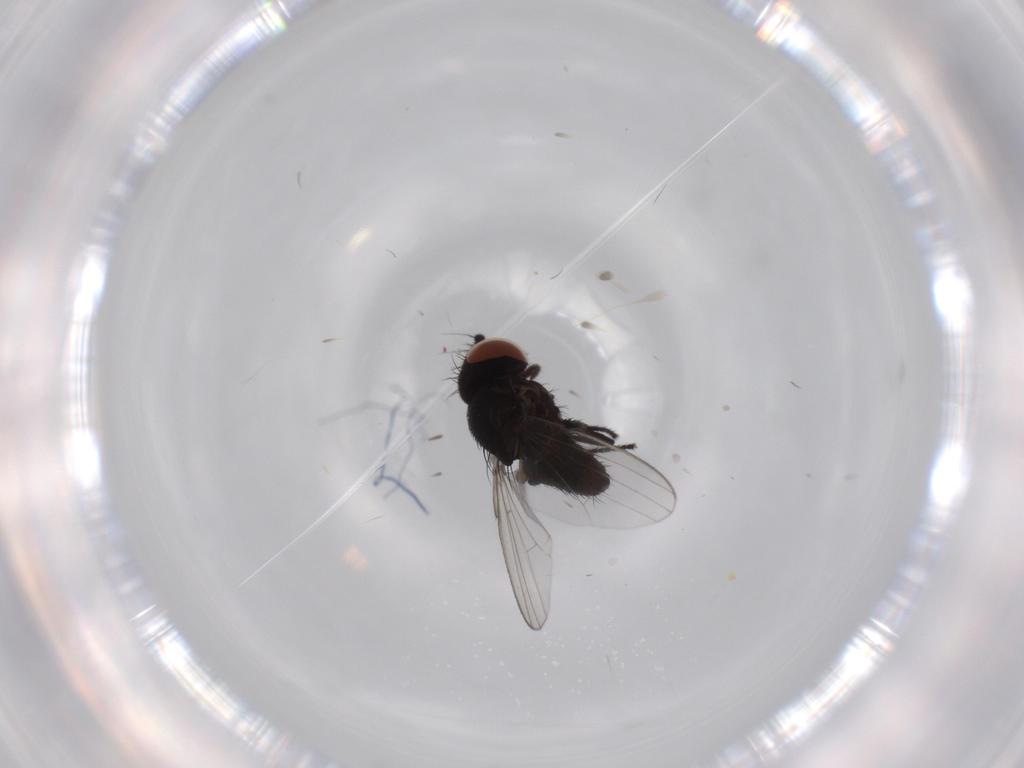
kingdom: Animalia
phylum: Arthropoda
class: Insecta
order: Diptera
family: Milichiidae
